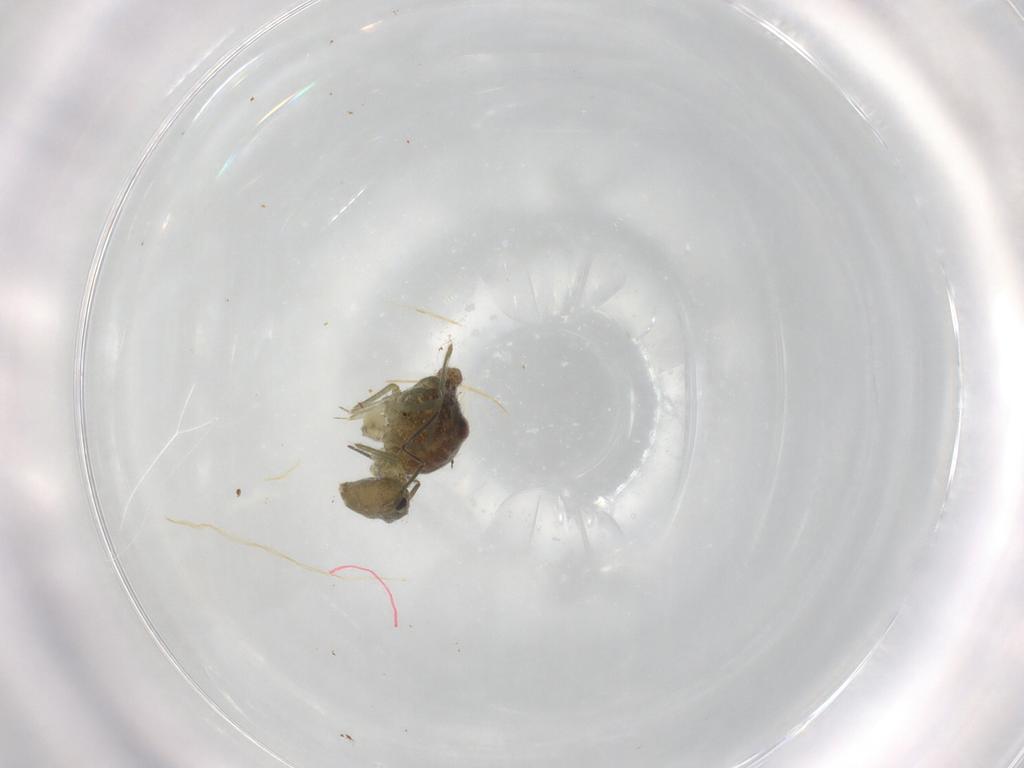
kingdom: Animalia
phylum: Arthropoda
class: Collembola
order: Symphypleona
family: Sminthuridae
